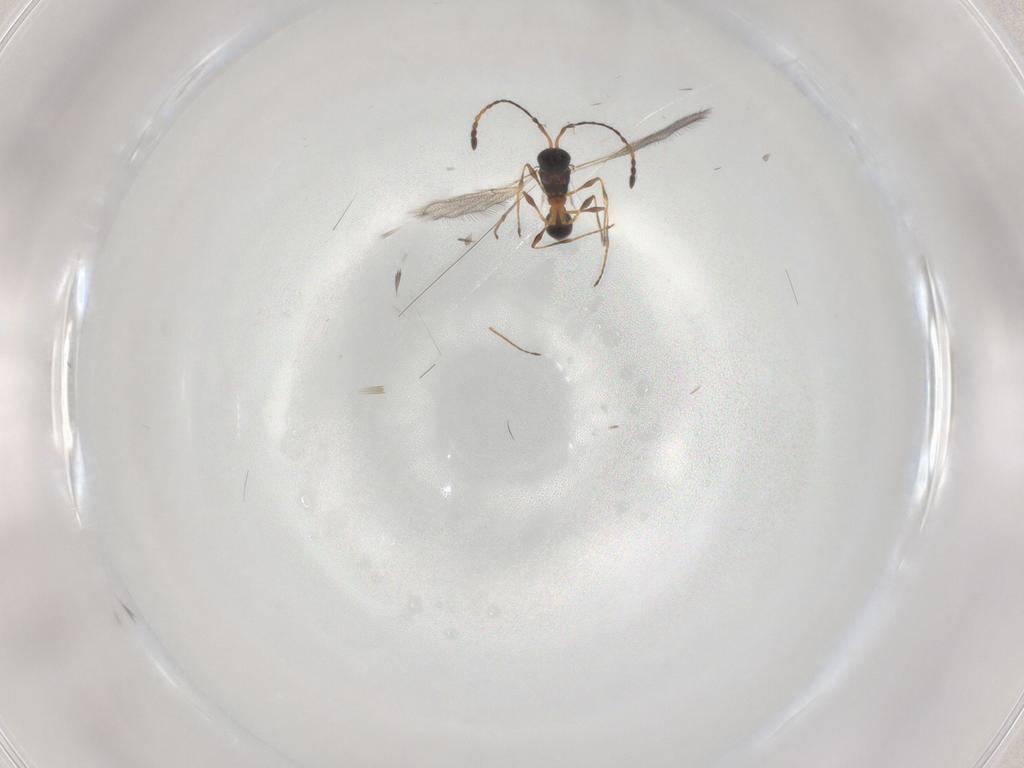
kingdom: Animalia
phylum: Arthropoda
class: Insecta
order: Hymenoptera
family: Diapriidae
